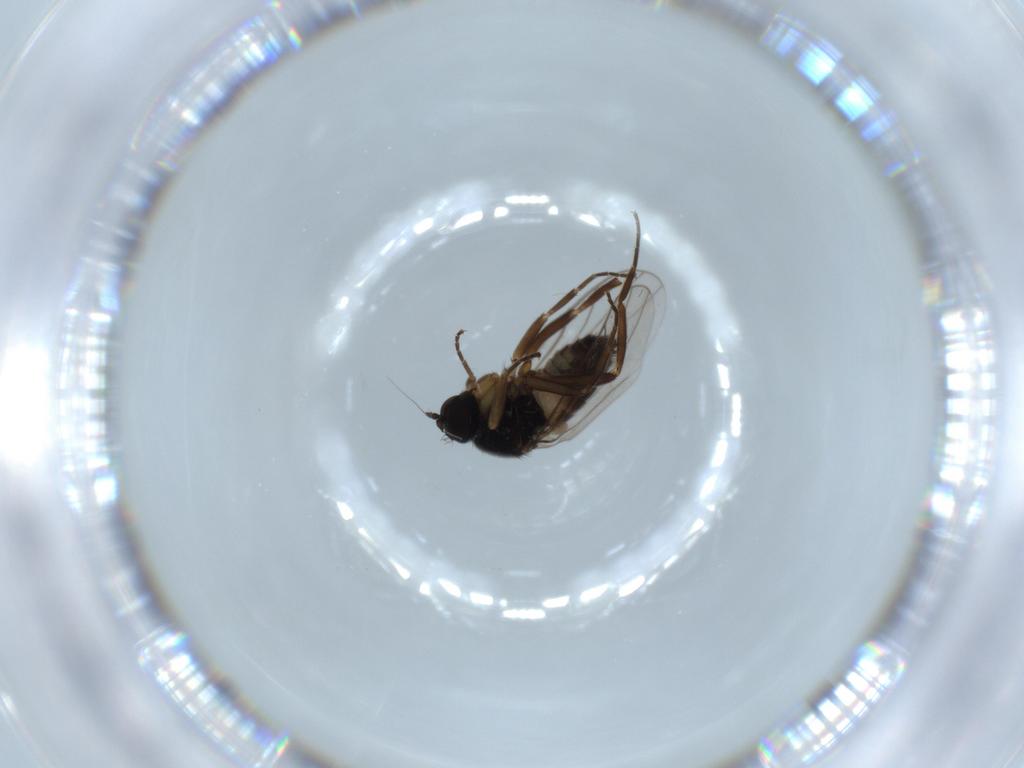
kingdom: Animalia
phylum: Arthropoda
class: Insecta
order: Diptera
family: Hybotidae
